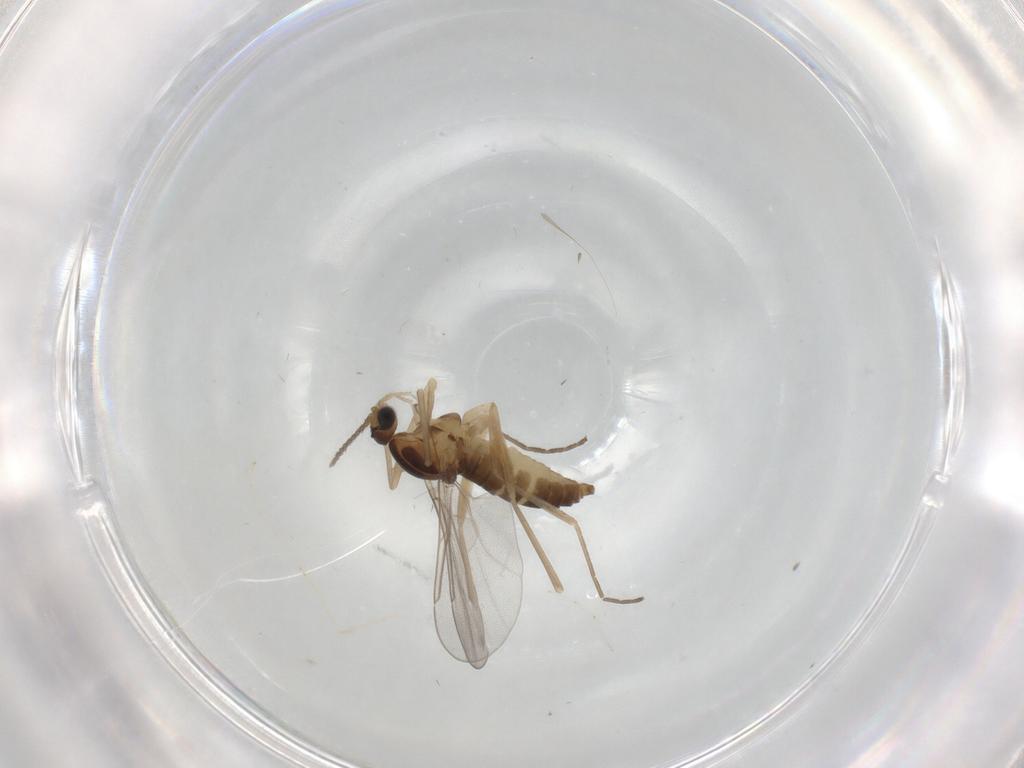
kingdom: Animalia
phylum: Arthropoda
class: Insecta
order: Diptera
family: Cecidomyiidae
